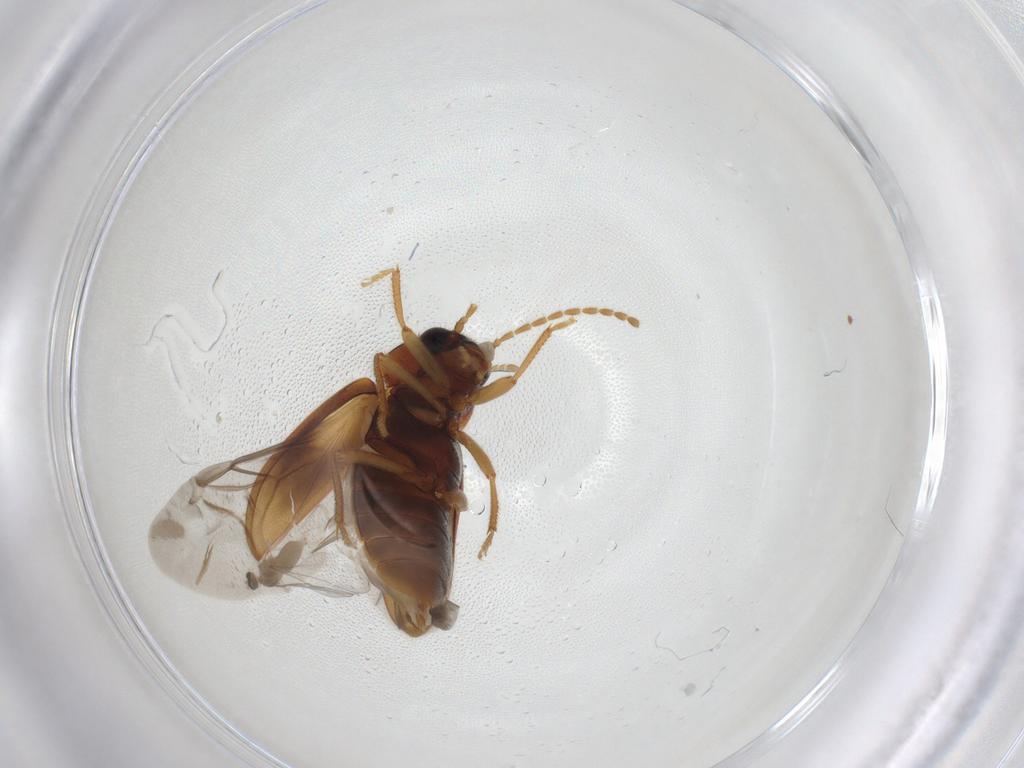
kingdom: Animalia
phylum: Arthropoda
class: Insecta
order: Coleoptera
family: Ptilodactylidae
